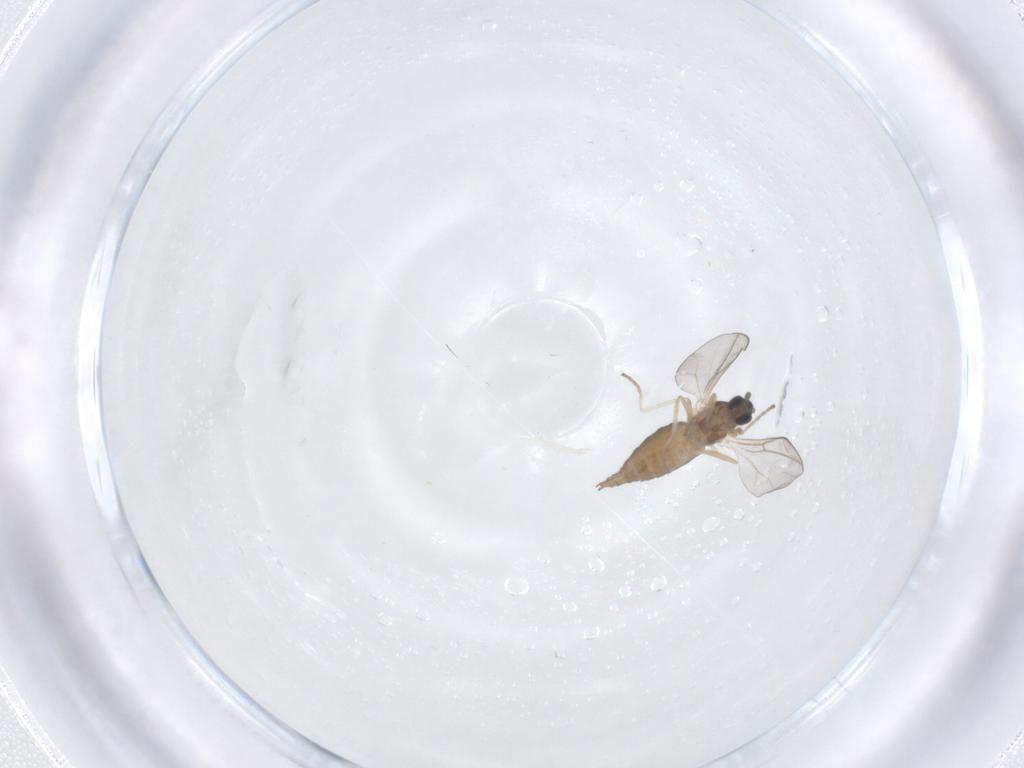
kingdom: Animalia
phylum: Arthropoda
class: Insecta
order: Diptera
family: Cecidomyiidae
